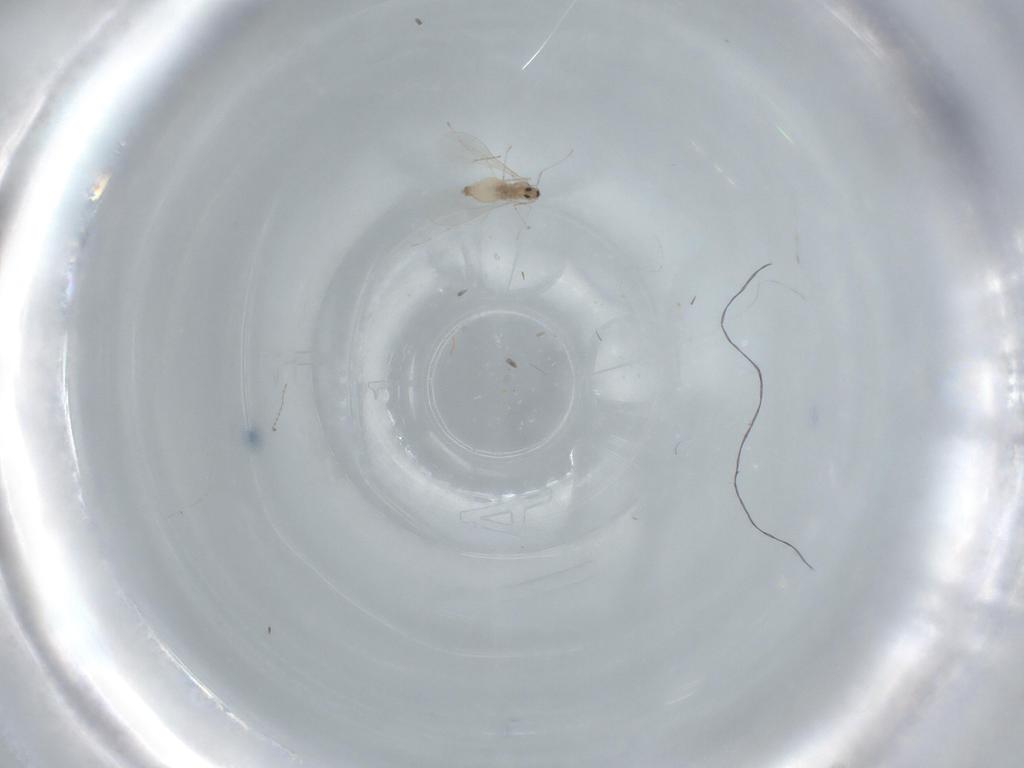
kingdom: Animalia
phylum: Arthropoda
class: Insecta
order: Diptera
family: Cecidomyiidae
